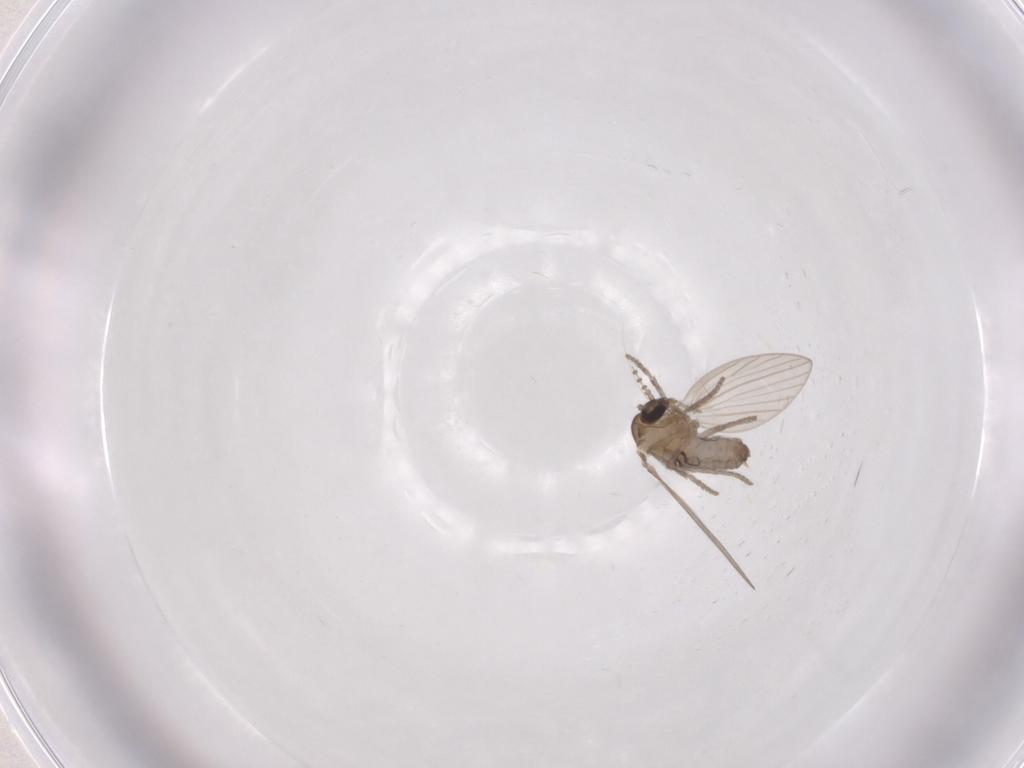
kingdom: Animalia
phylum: Arthropoda
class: Insecta
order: Diptera
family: Psychodidae
